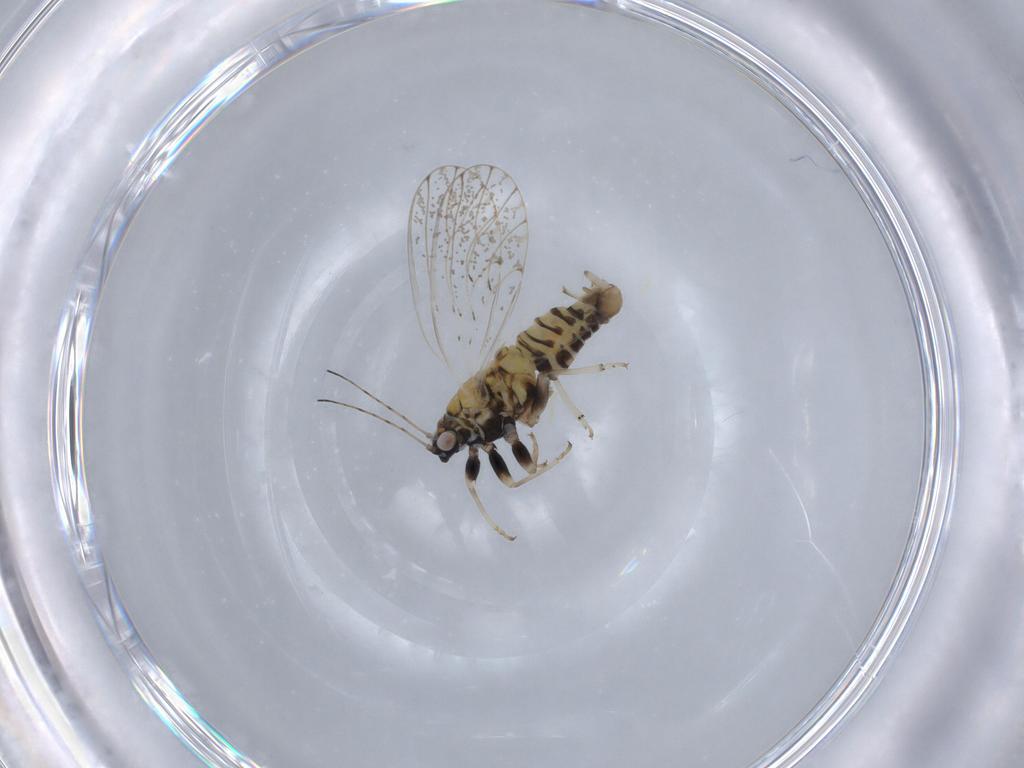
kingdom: Animalia
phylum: Arthropoda
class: Insecta
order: Hemiptera
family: Psyllidae
